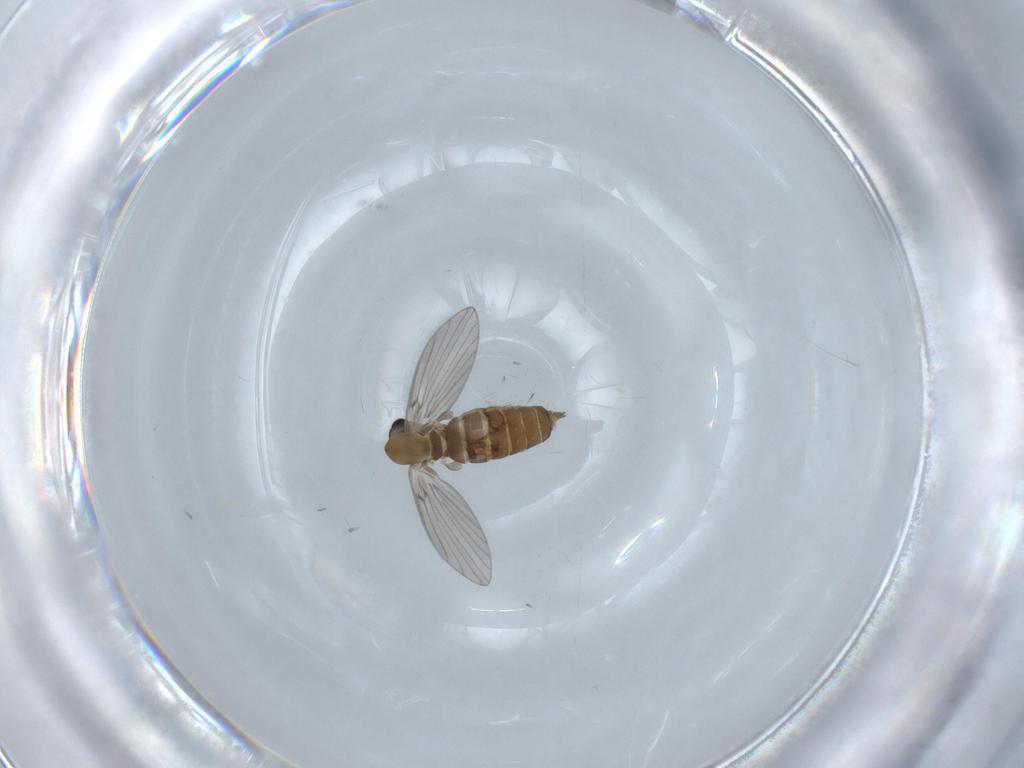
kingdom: Animalia
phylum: Arthropoda
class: Insecta
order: Diptera
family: Psychodidae
